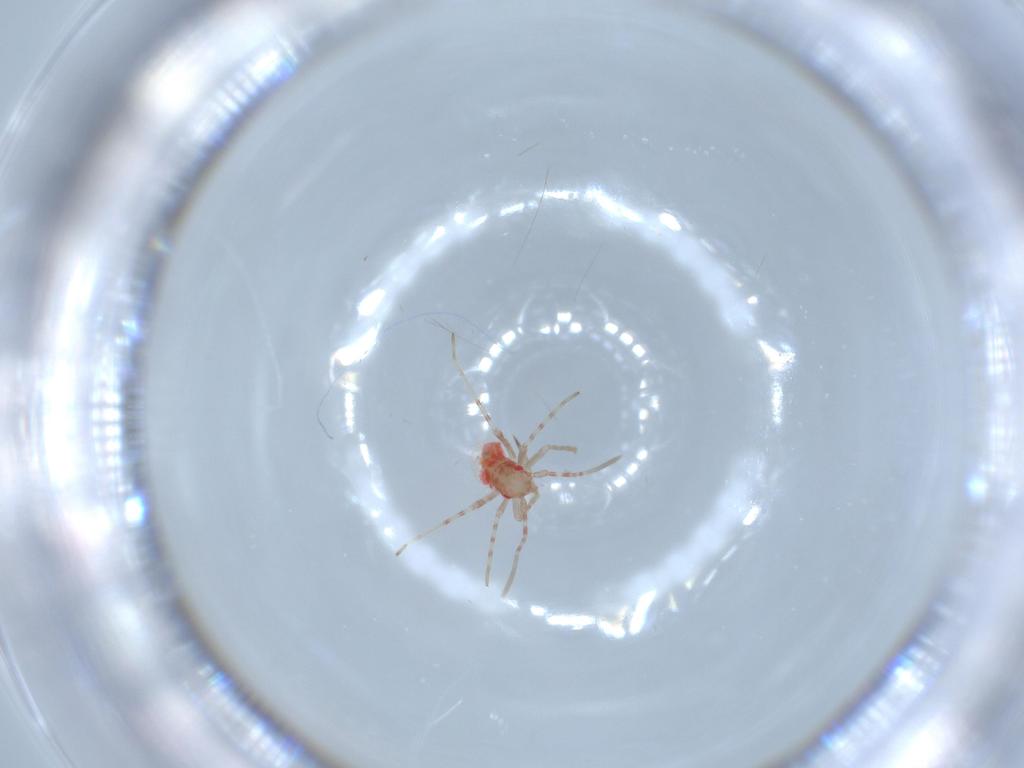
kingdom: Animalia
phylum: Arthropoda
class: Insecta
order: Hemiptera
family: Miridae
